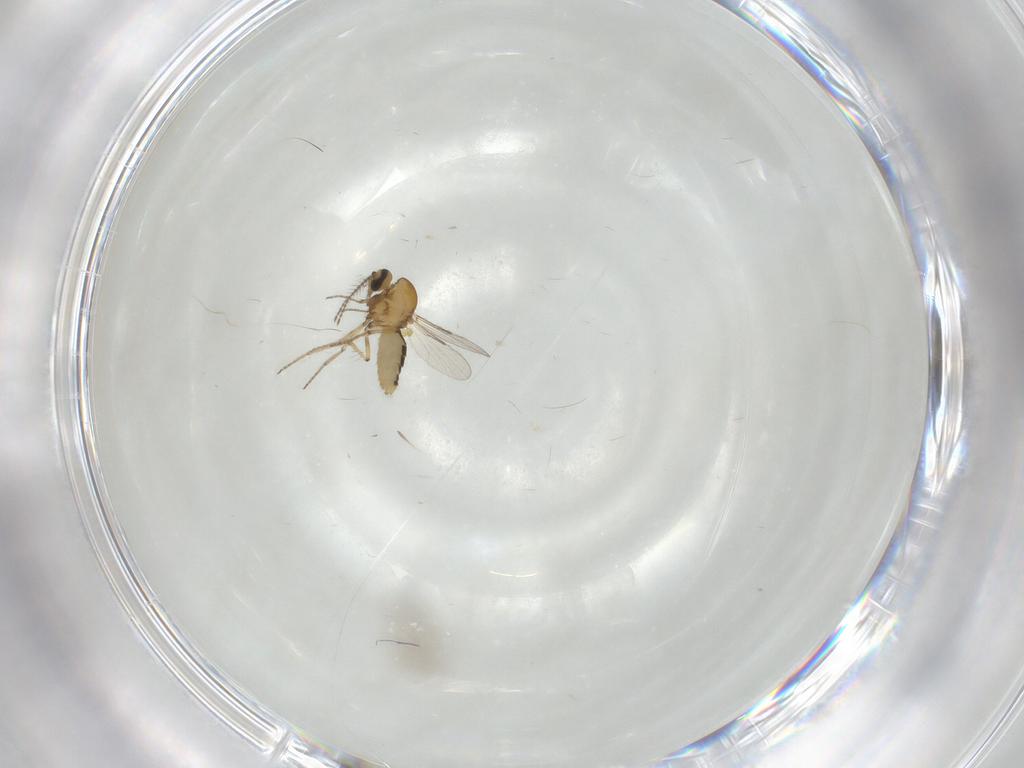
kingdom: Animalia
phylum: Arthropoda
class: Insecta
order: Diptera
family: Ceratopogonidae
